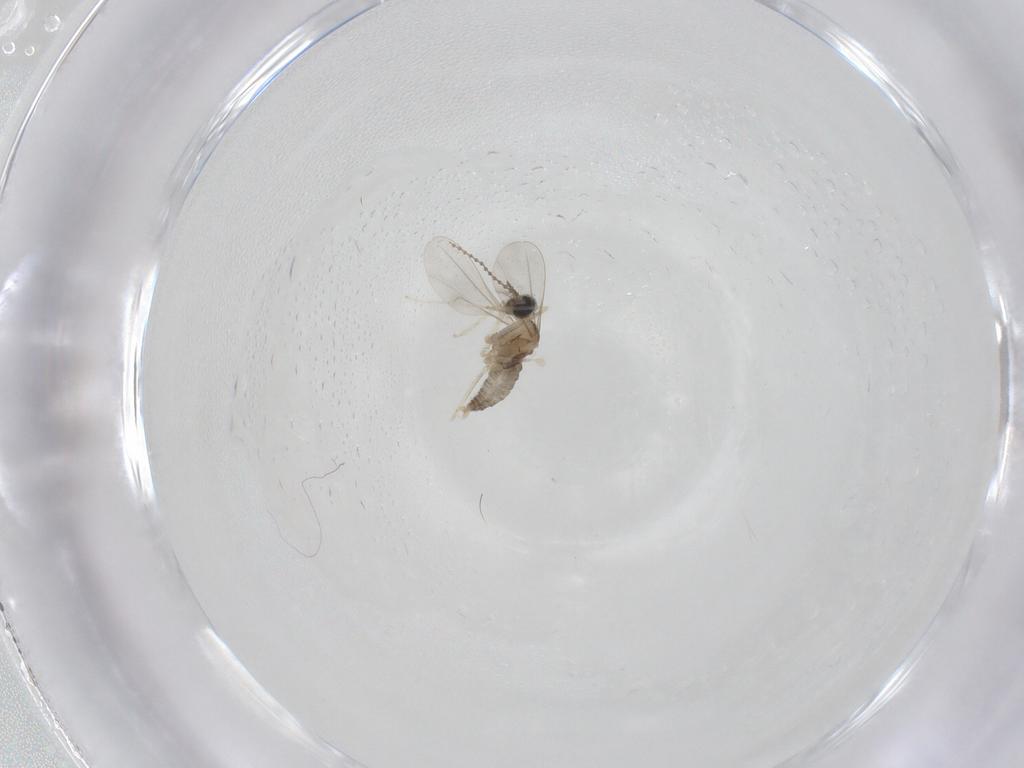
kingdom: Animalia
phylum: Arthropoda
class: Insecta
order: Diptera
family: Cecidomyiidae
